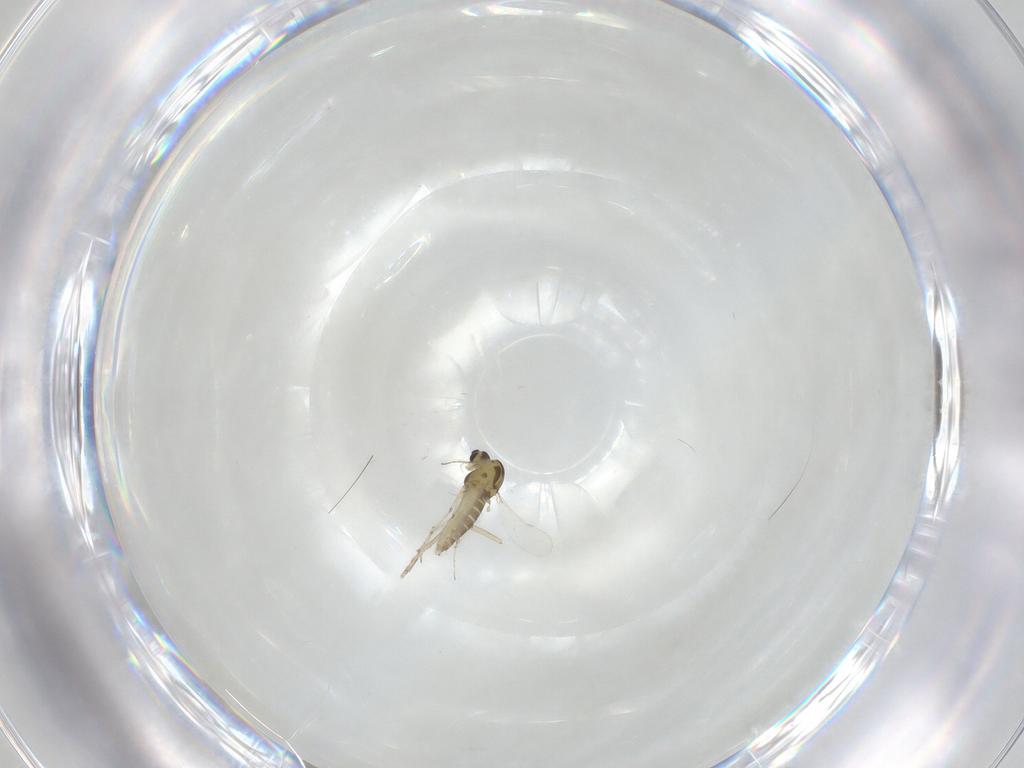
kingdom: Animalia
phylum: Arthropoda
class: Insecta
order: Diptera
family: Chironomidae
